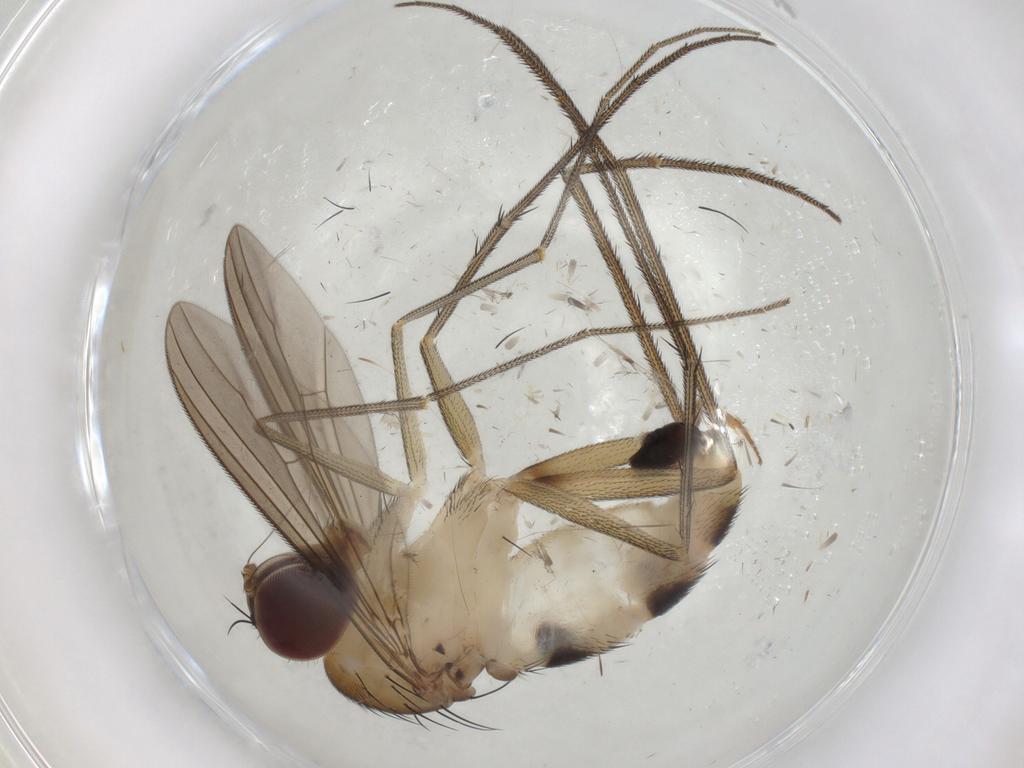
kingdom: Animalia
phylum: Arthropoda
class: Insecta
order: Diptera
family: Dolichopodidae
